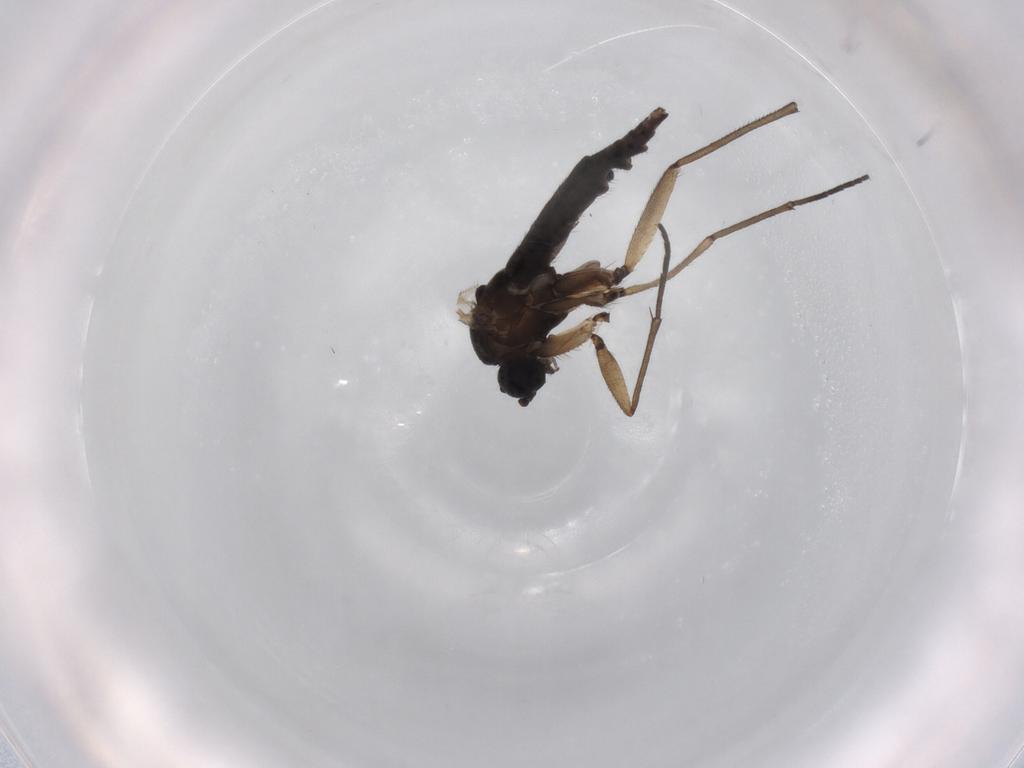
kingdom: Animalia
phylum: Arthropoda
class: Insecta
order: Diptera
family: Sciaridae
